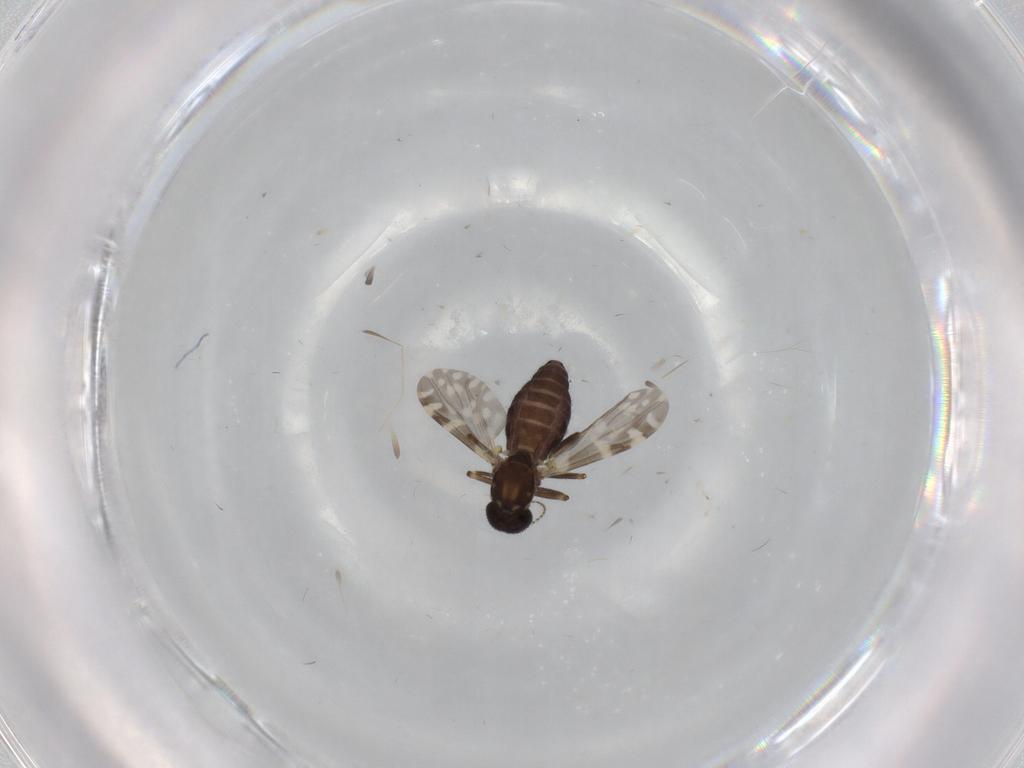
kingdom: Animalia
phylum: Arthropoda
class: Insecta
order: Diptera
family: Ceratopogonidae
